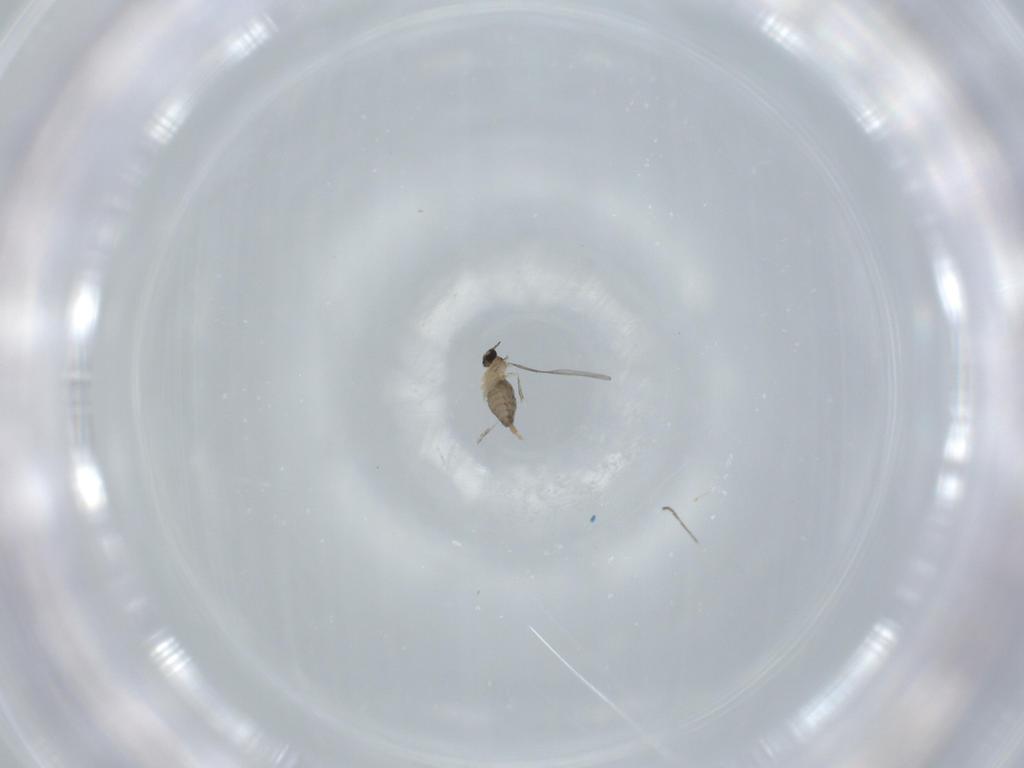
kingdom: Animalia
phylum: Arthropoda
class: Insecta
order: Diptera
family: Cecidomyiidae
